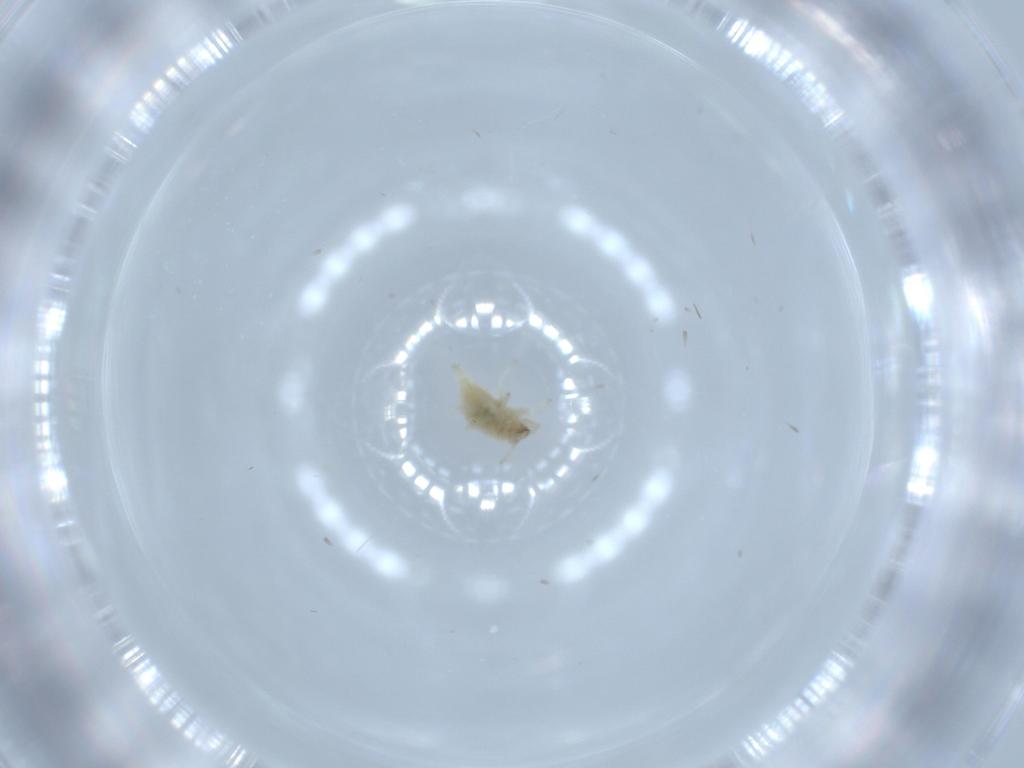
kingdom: Animalia
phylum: Arthropoda
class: Insecta
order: Neuroptera
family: Coniopterygidae
